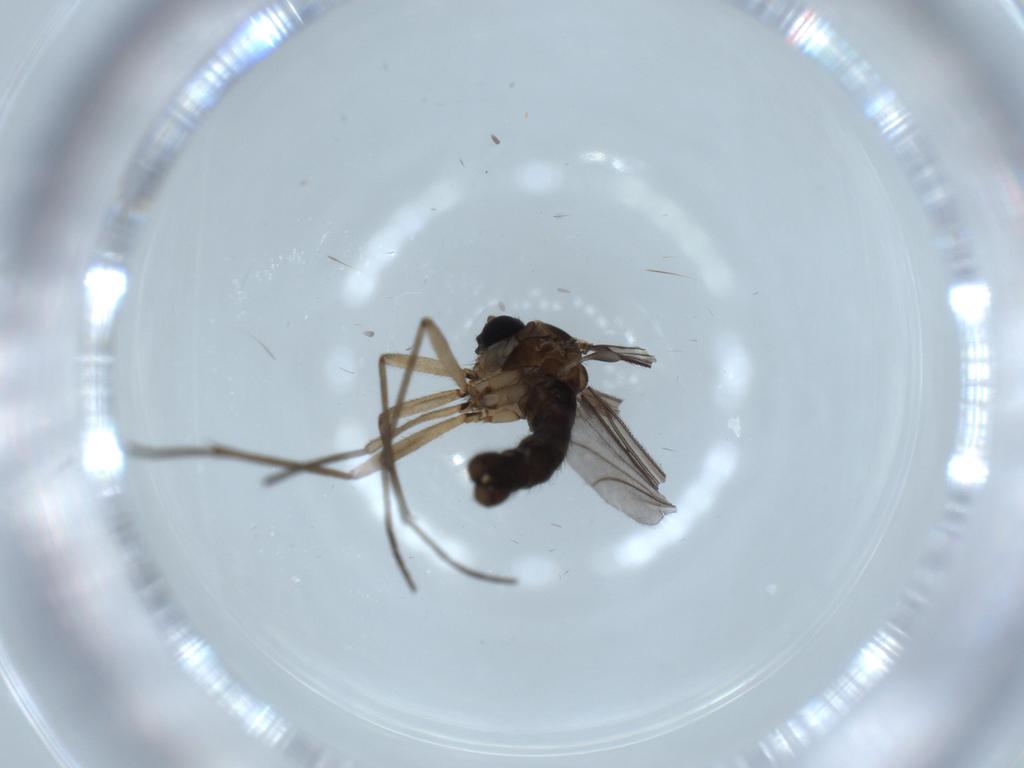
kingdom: Animalia
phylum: Arthropoda
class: Insecta
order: Diptera
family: Sciaridae
